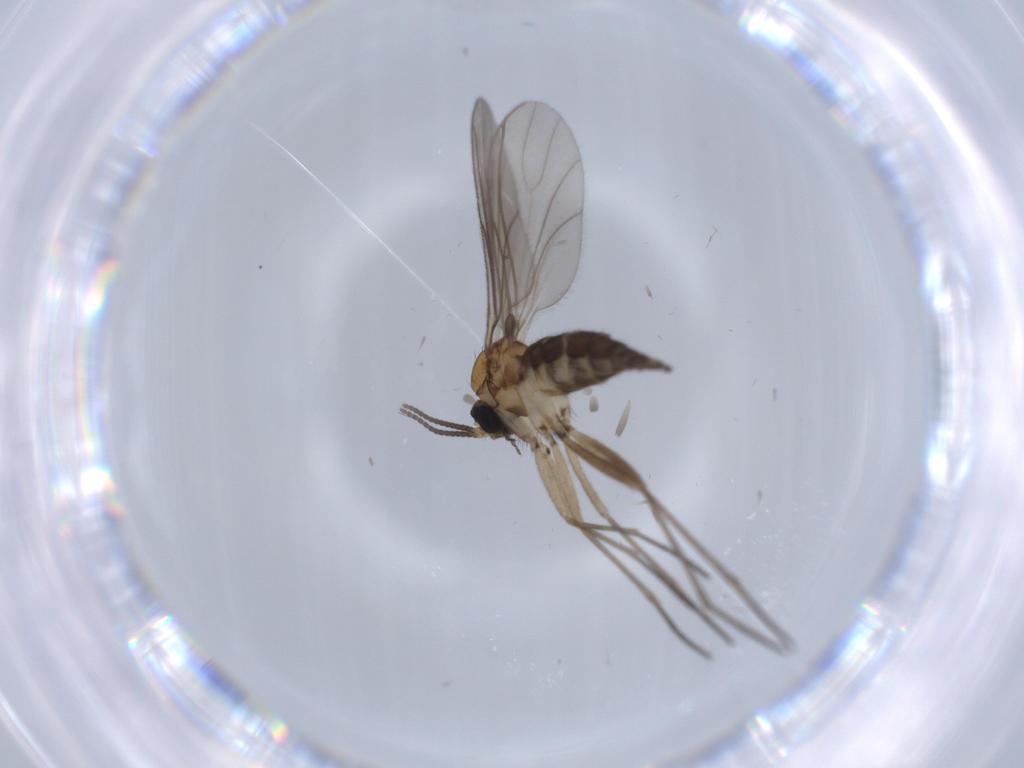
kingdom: Animalia
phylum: Arthropoda
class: Insecta
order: Diptera
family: Sciaridae
